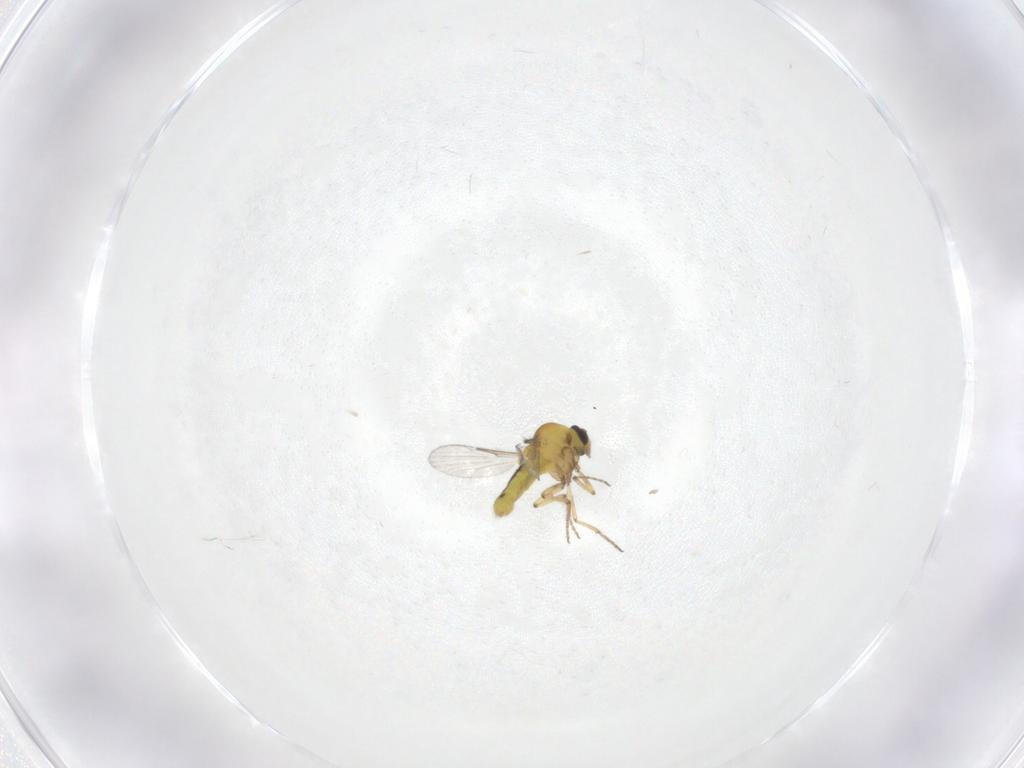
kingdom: Animalia
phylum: Arthropoda
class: Insecta
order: Diptera
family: Ceratopogonidae
